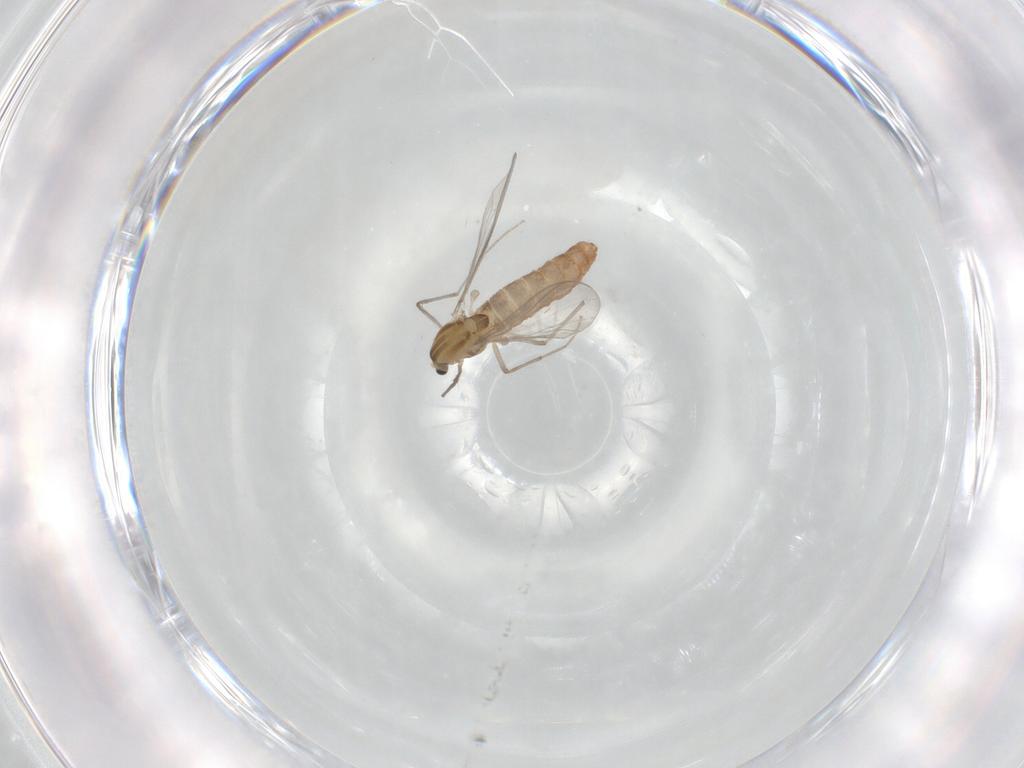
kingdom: Animalia
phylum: Arthropoda
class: Insecta
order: Diptera
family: Chironomidae
